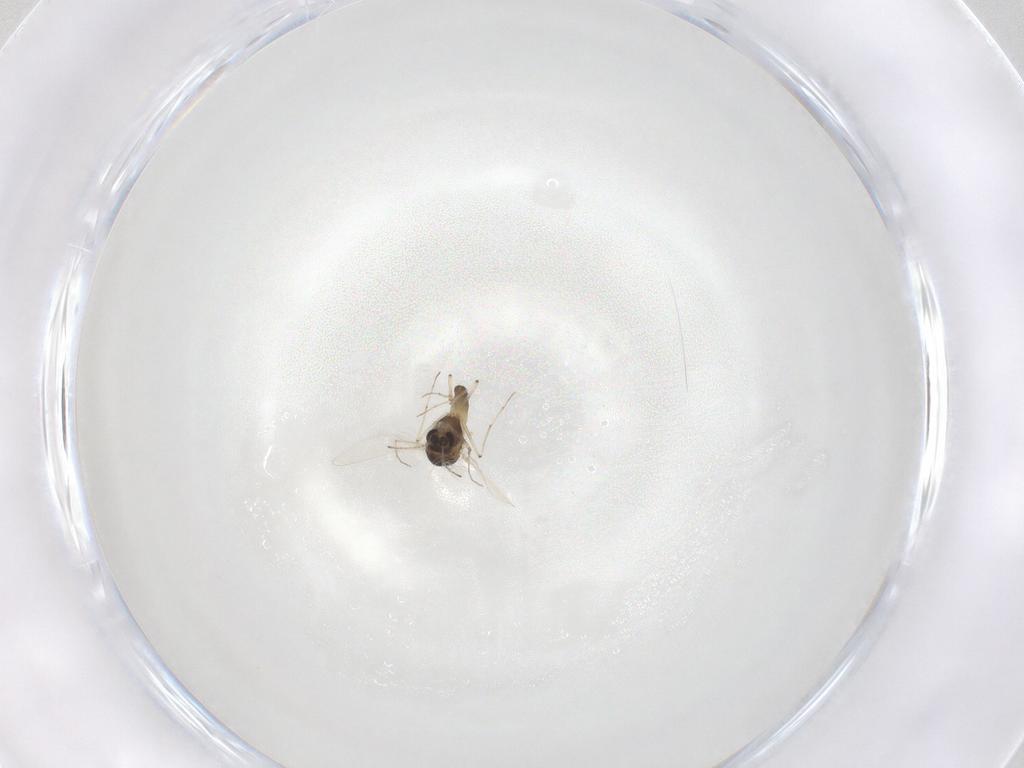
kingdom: Animalia
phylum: Arthropoda
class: Insecta
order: Diptera
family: Chironomidae
